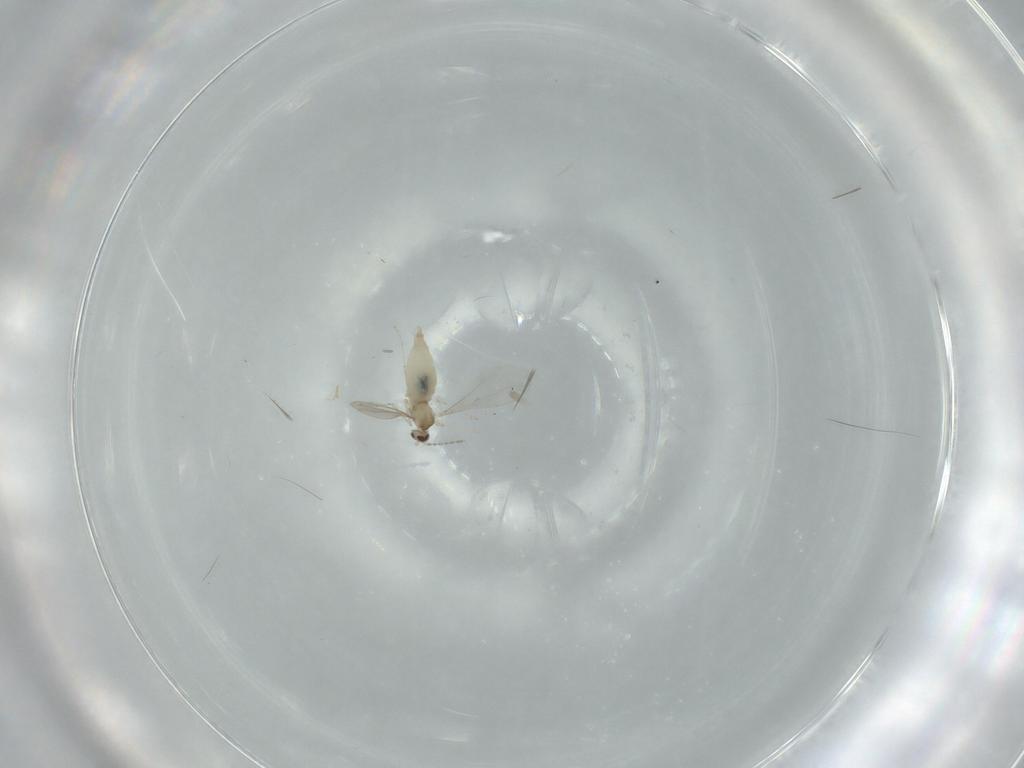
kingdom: Animalia
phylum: Arthropoda
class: Insecta
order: Diptera
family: Cecidomyiidae
